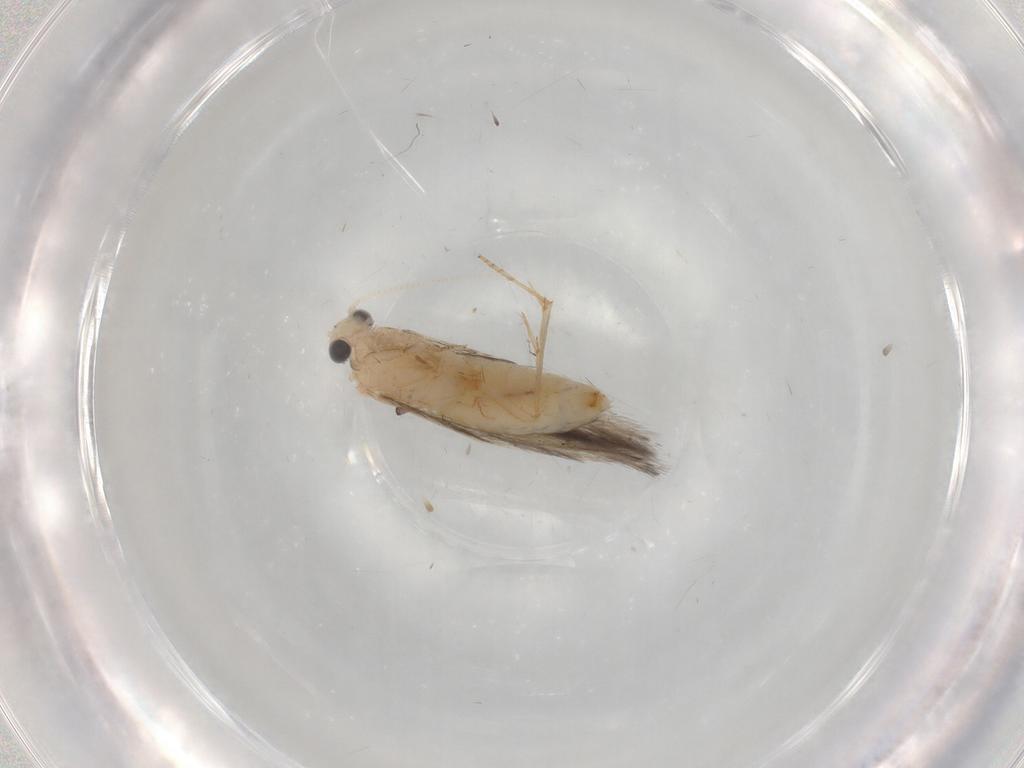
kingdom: Animalia
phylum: Arthropoda
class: Insecta
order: Trichoptera
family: Hydroptilidae
